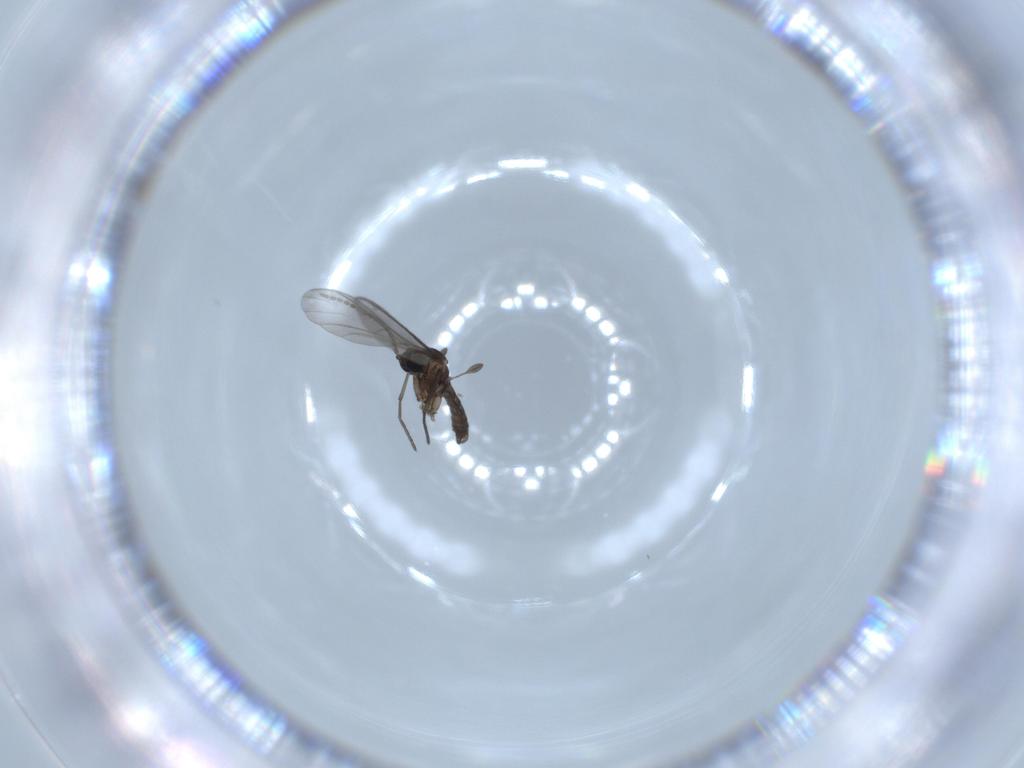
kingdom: Animalia
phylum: Arthropoda
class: Insecta
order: Diptera
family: Sciaridae
